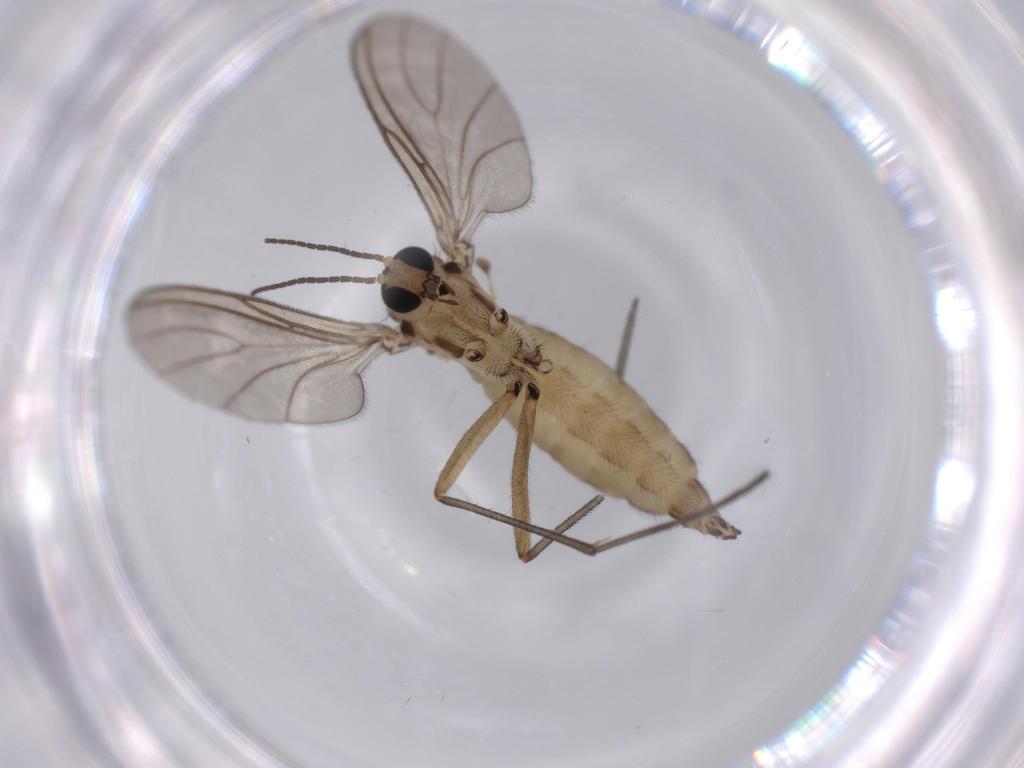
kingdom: Animalia
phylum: Arthropoda
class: Insecta
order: Diptera
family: Sciaridae
